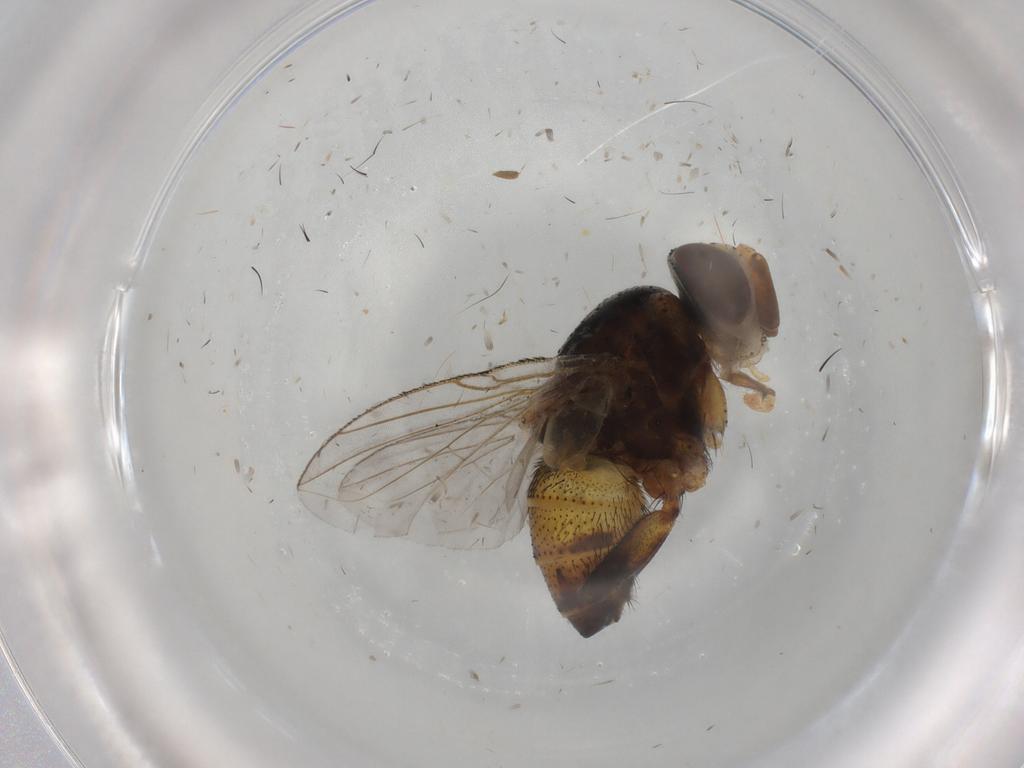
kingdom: Animalia
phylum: Arthropoda
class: Insecta
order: Diptera
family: Glossinidae
